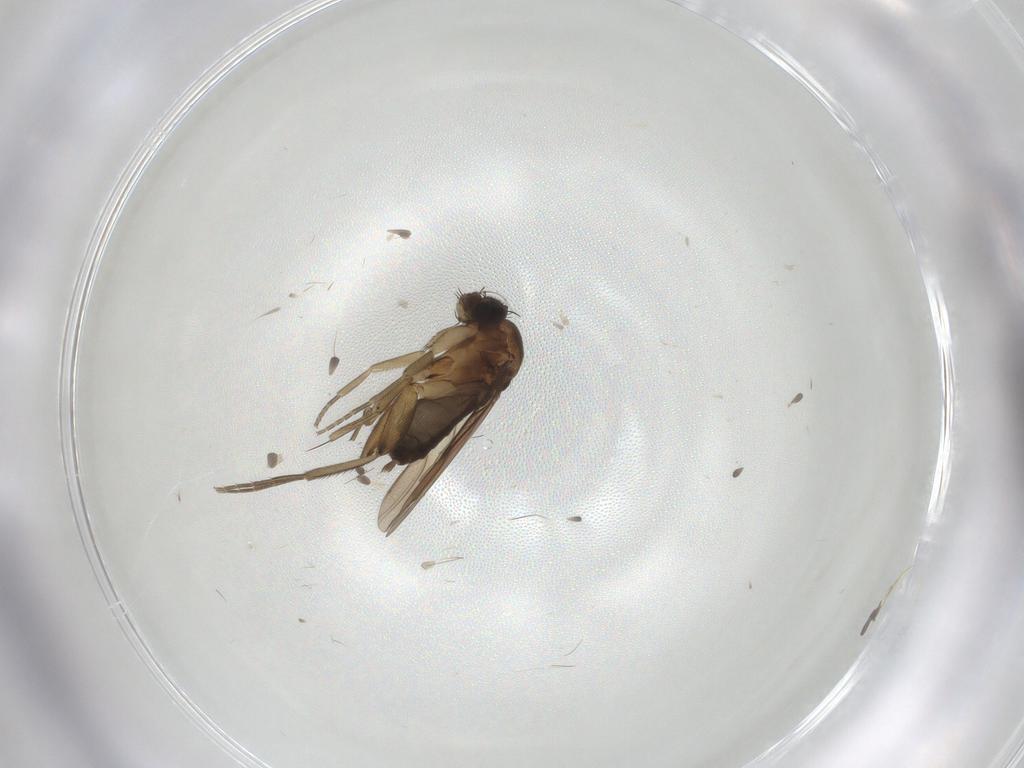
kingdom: Animalia
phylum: Arthropoda
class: Insecta
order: Diptera
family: Phoridae
